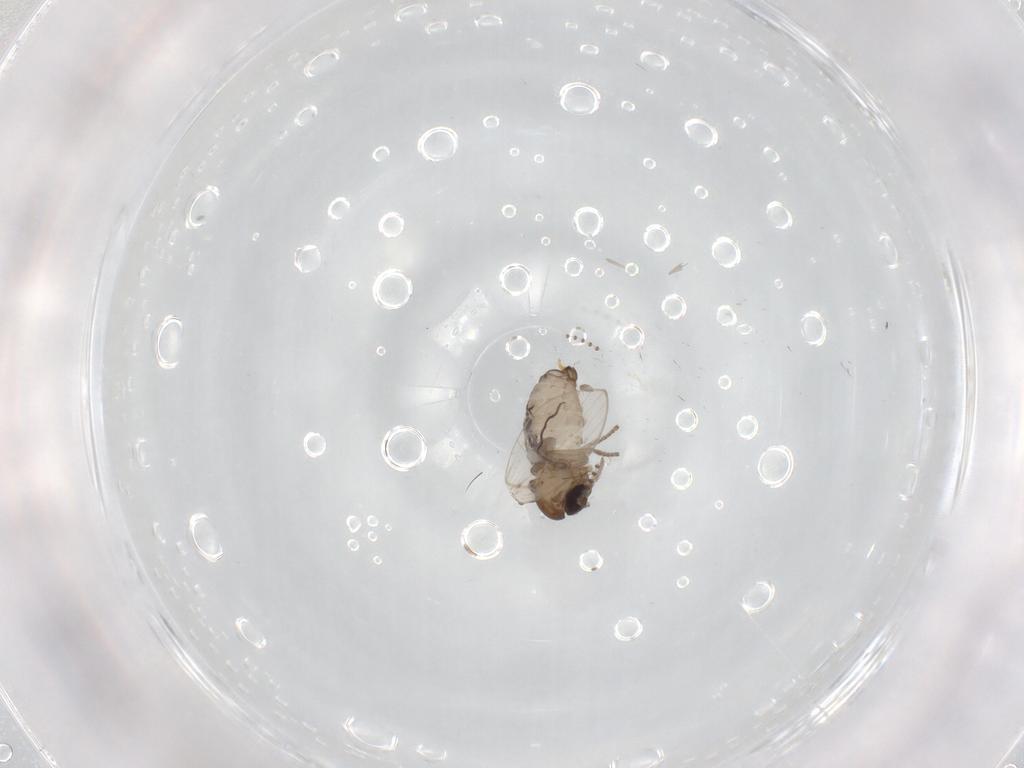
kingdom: Animalia
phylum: Arthropoda
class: Insecta
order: Diptera
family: Psychodidae
